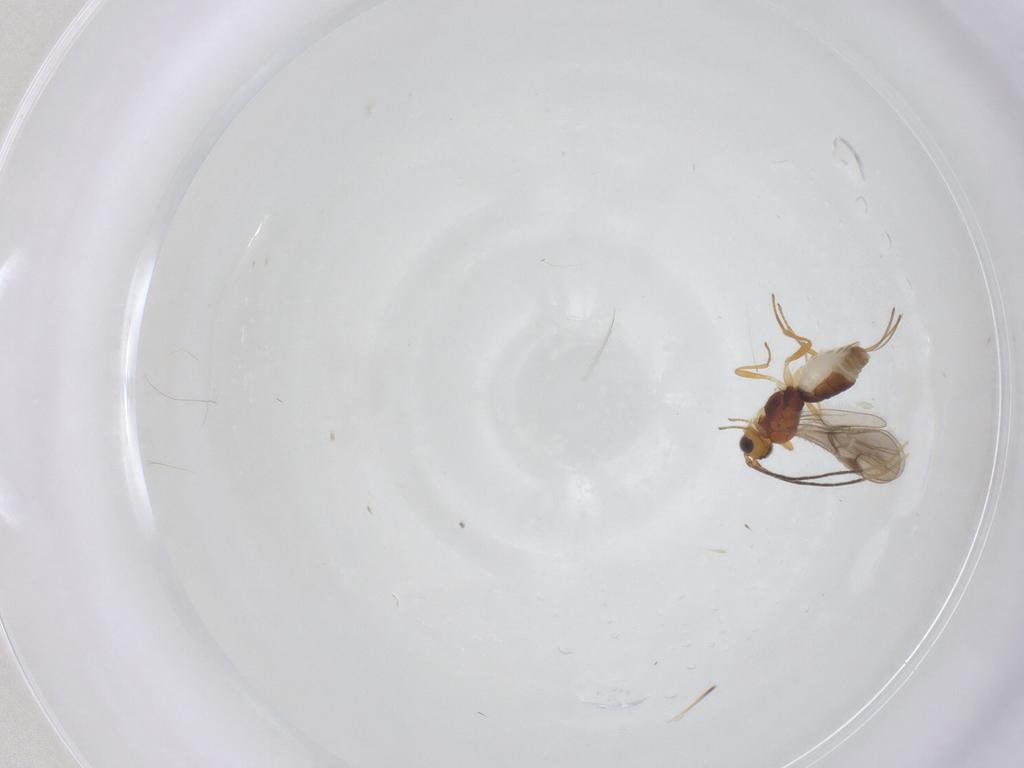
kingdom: Animalia
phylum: Arthropoda
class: Insecta
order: Hymenoptera
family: Braconidae
